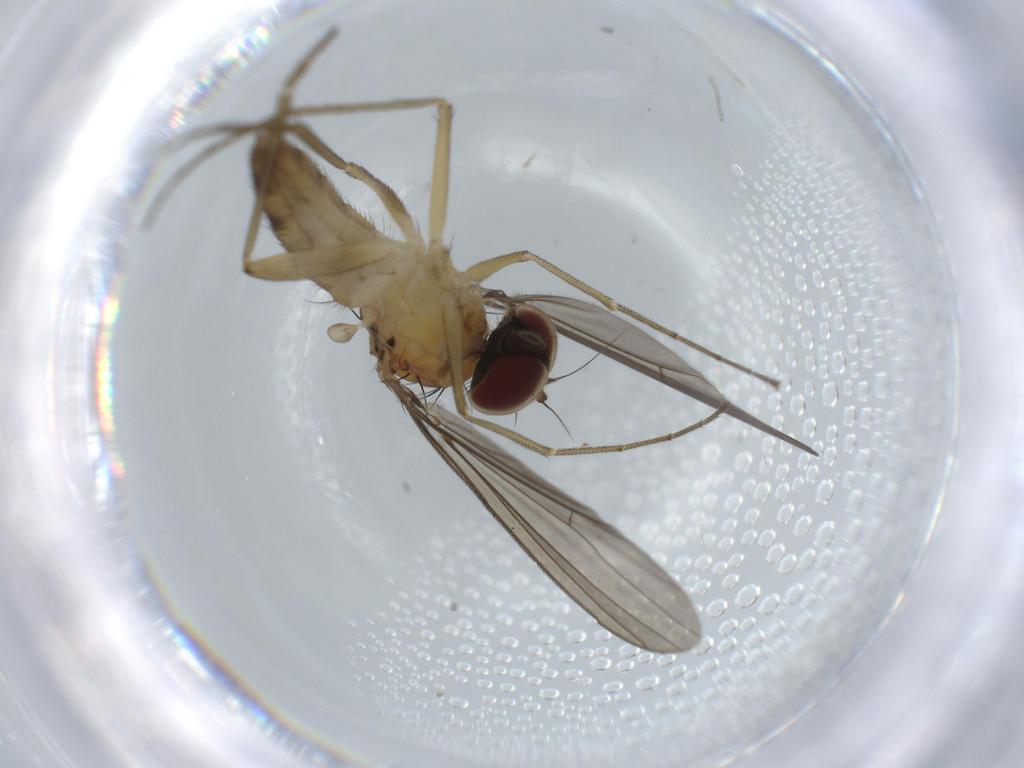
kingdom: Animalia
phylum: Arthropoda
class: Insecta
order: Diptera
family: Ceratopogonidae
